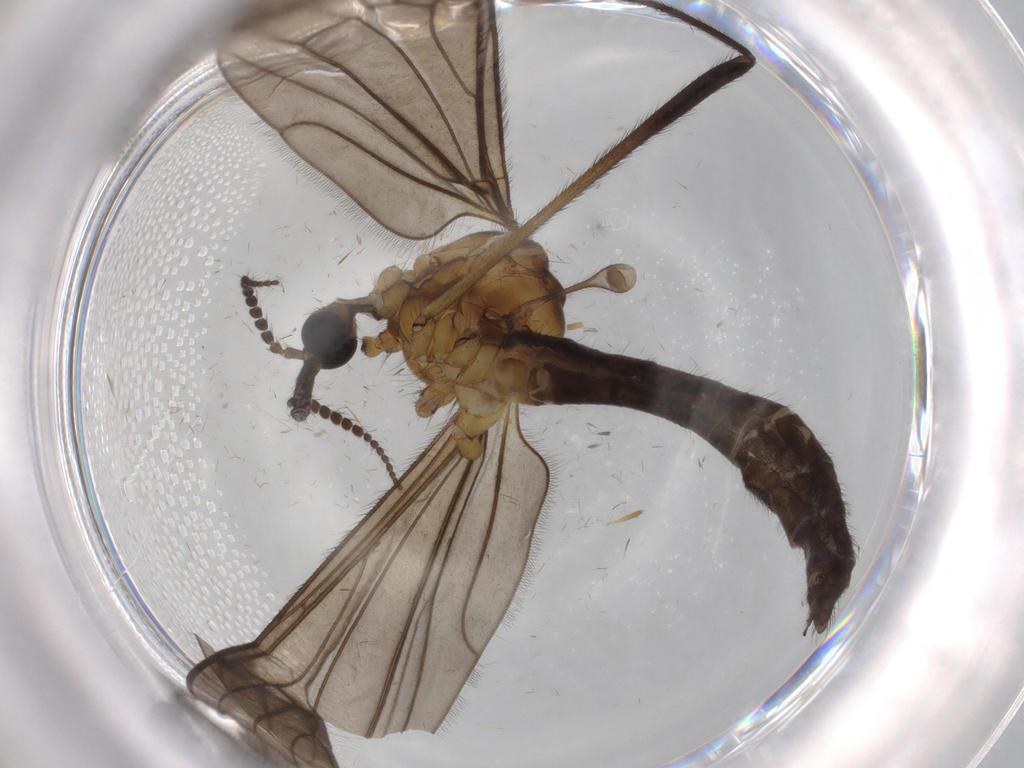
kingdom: Animalia
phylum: Arthropoda
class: Insecta
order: Diptera
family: Limoniidae
